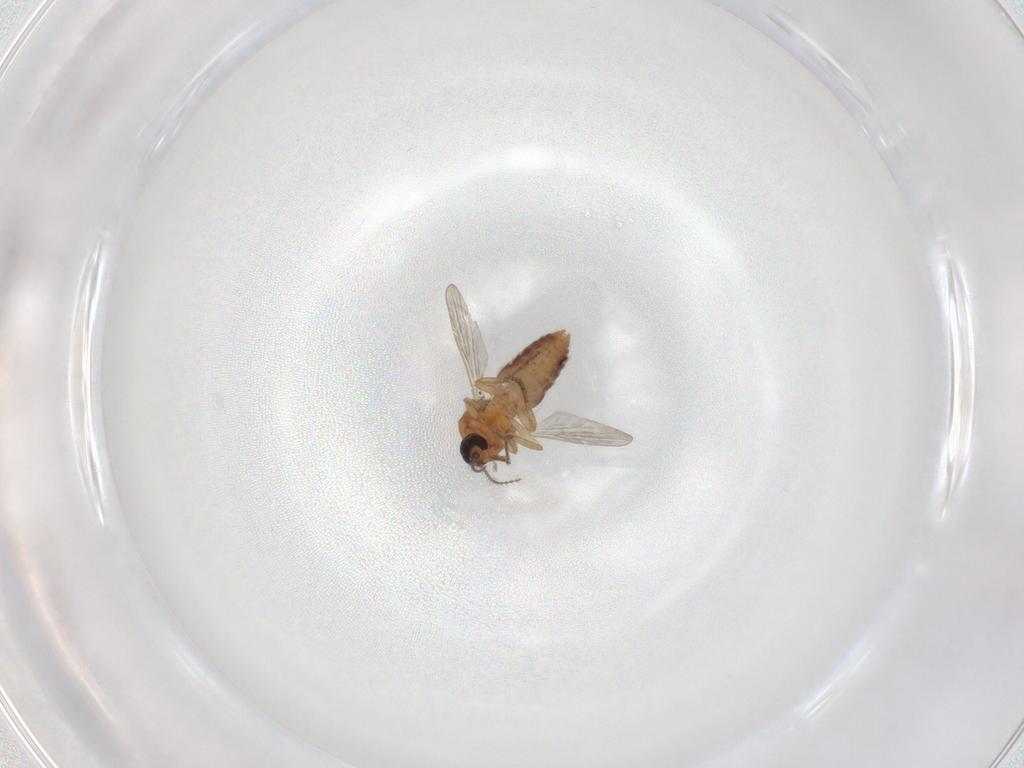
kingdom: Animalia
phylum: Arthropoda
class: Insecta
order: Diptera
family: Ceratopogonidae
